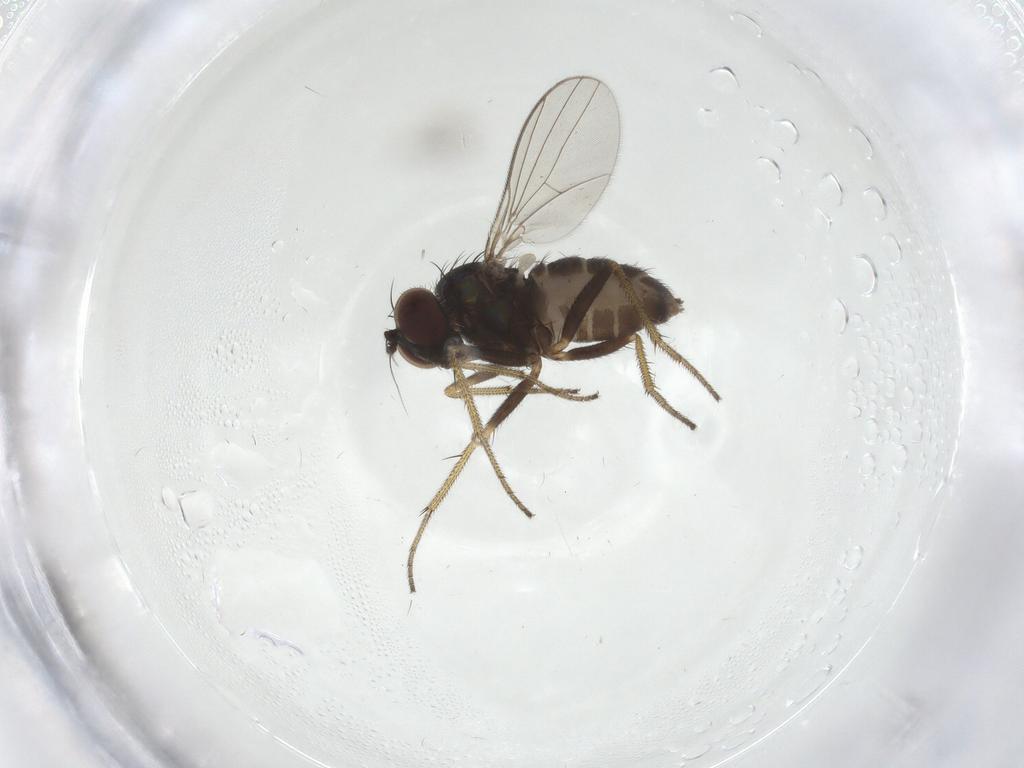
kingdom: Animalia
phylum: Arthropoda
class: Insecta
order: Diptera
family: Dolichopodidae
